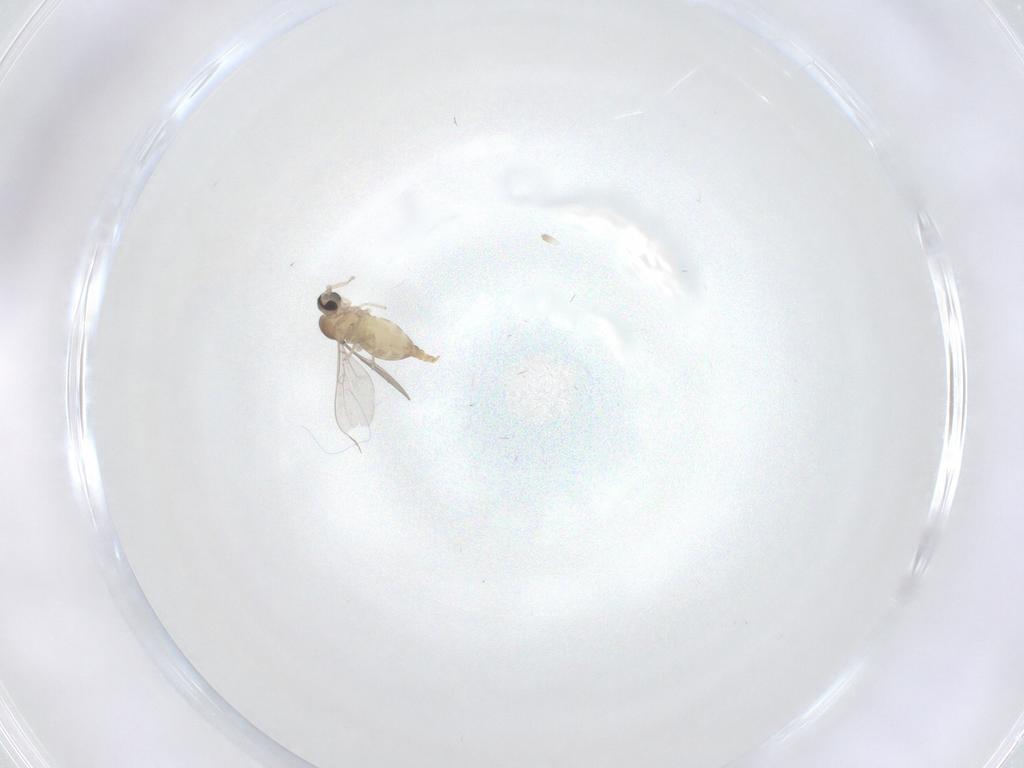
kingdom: Animalia
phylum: Arthropoda
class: Insecta
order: Diptera
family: Cecidomyiidae
